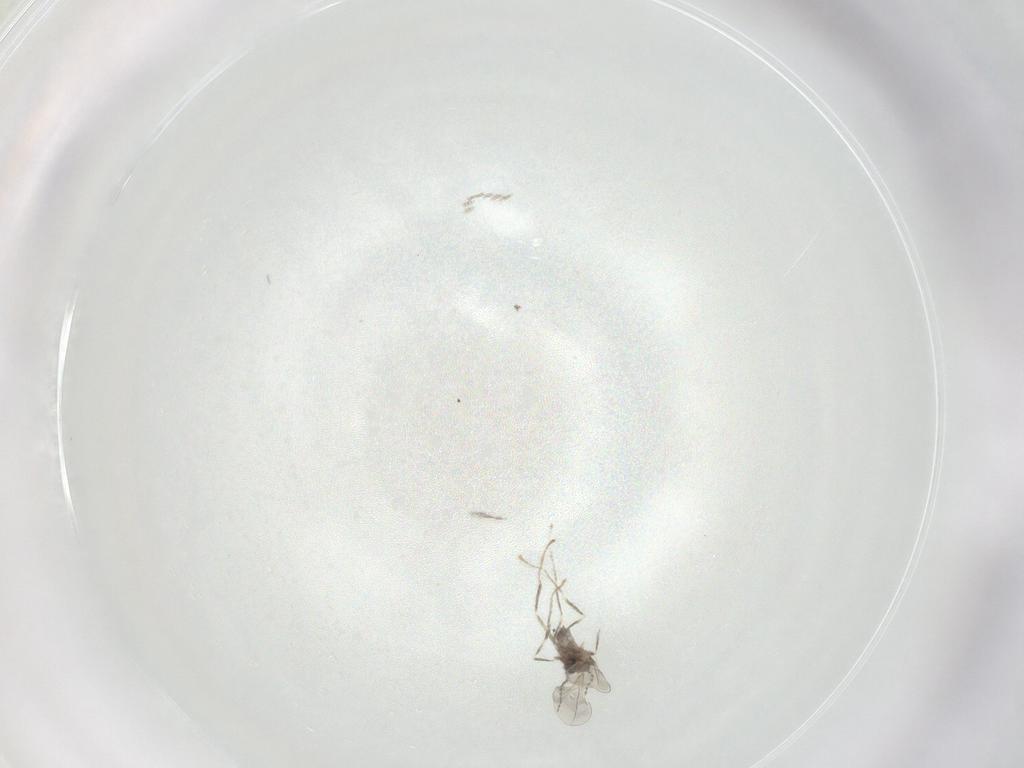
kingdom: Animalia
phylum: Arthropoda
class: Insecta
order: Diptera
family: Cecidomyiidae
